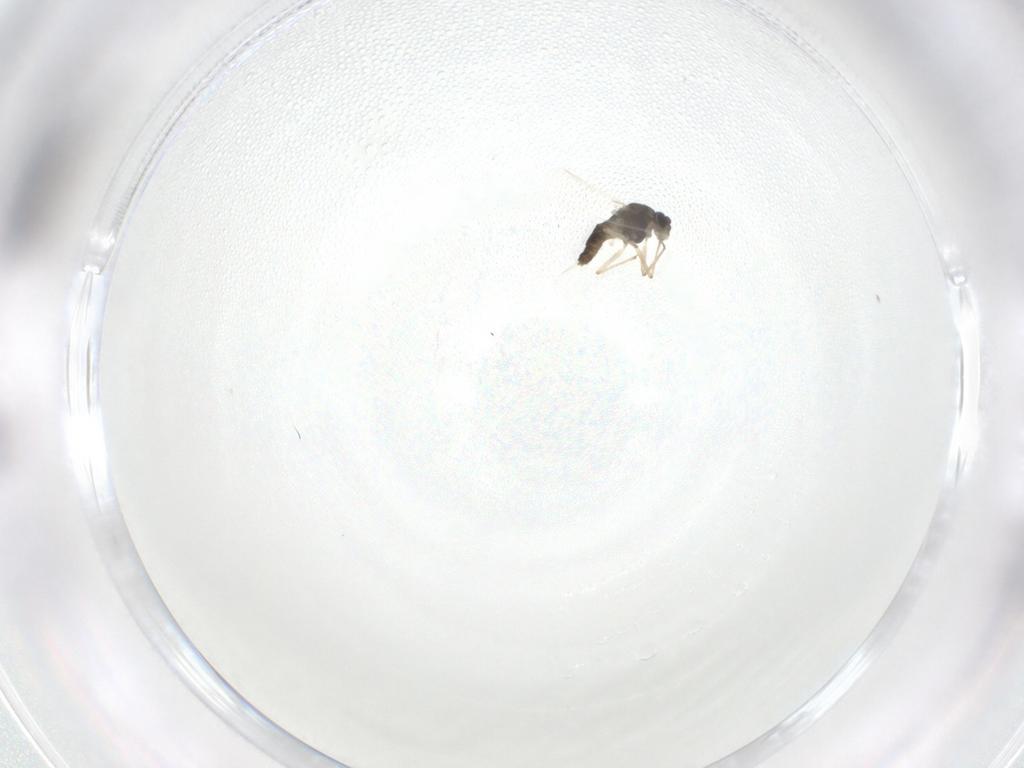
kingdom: Animalia
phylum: Arthropoda
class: Insecta
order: Diptera
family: Chironomidae
